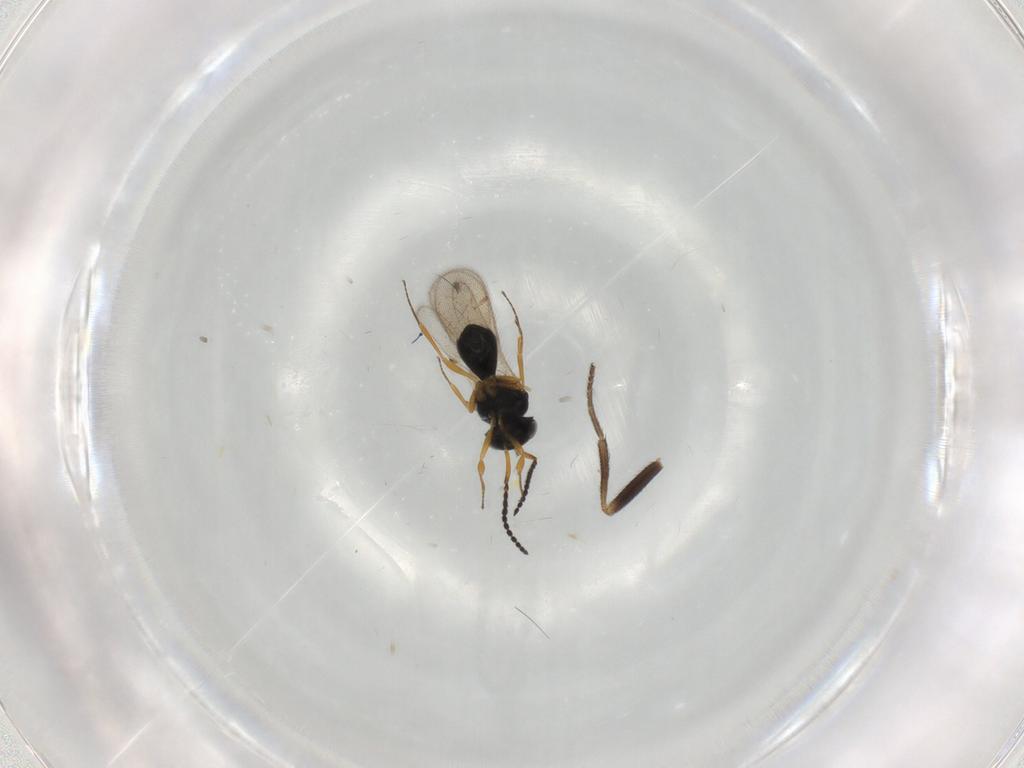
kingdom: Animalia
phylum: Arthropoda
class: Insecta
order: Hymenoptera
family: Scelionidae
